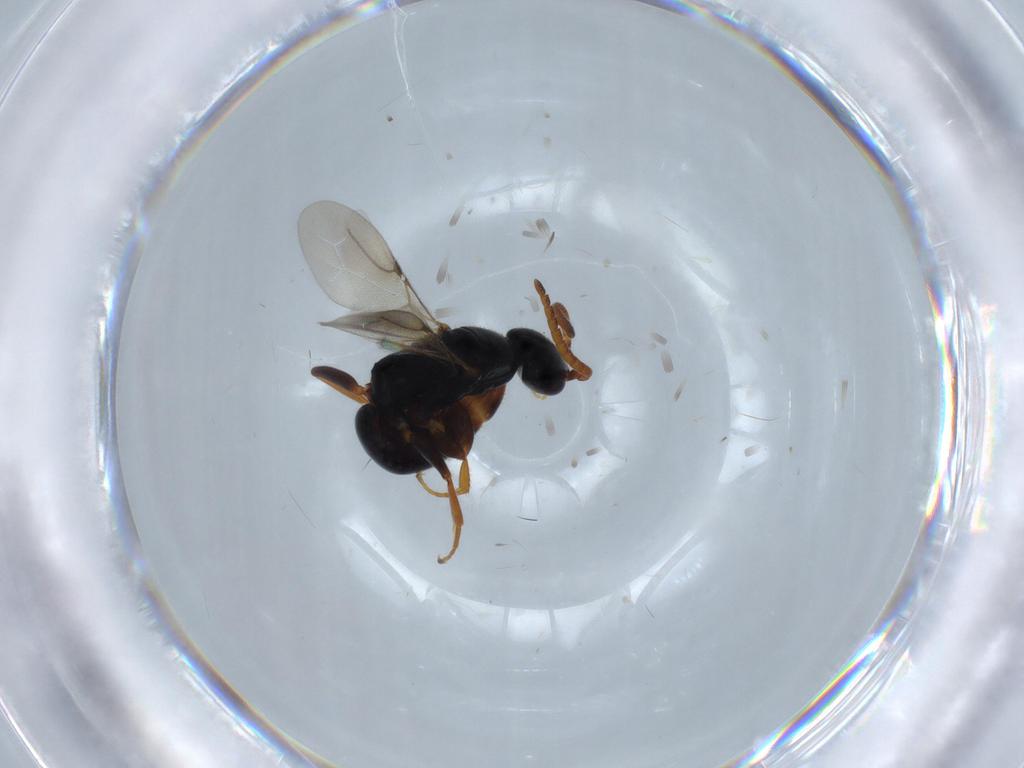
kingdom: Animalia
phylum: Arthropoda
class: Insecta
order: Hymenoptera
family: Bethylidae
